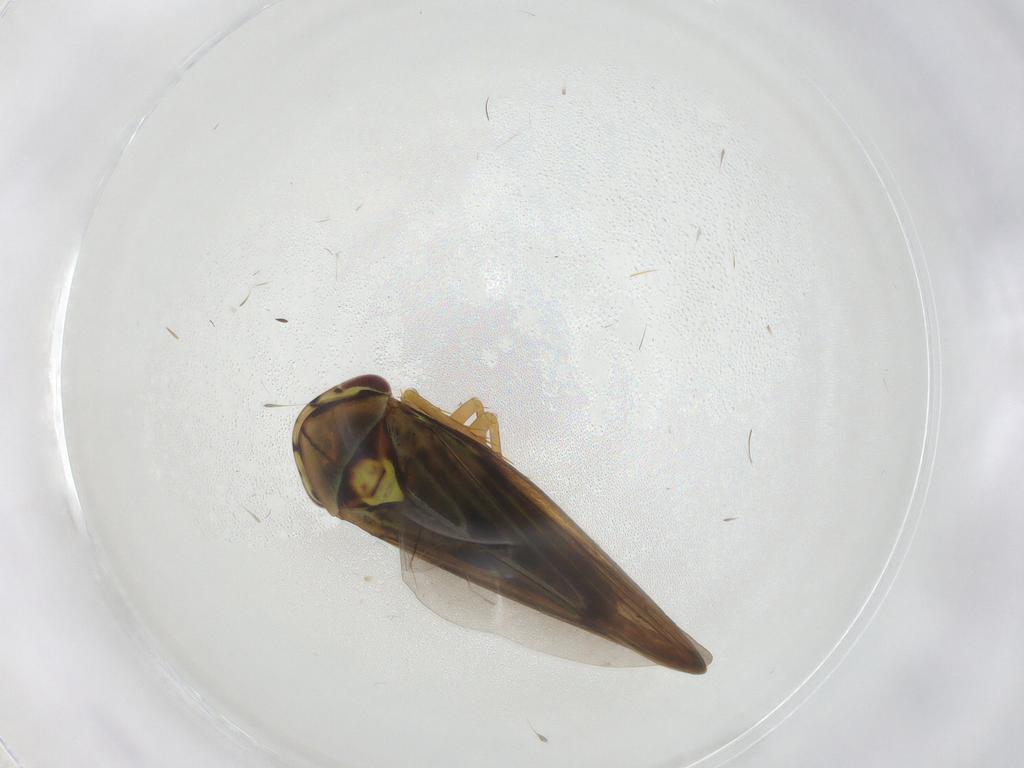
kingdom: Animalia
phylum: Arthropoda
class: Insecta
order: Hemiptera
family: Cicadellidae
